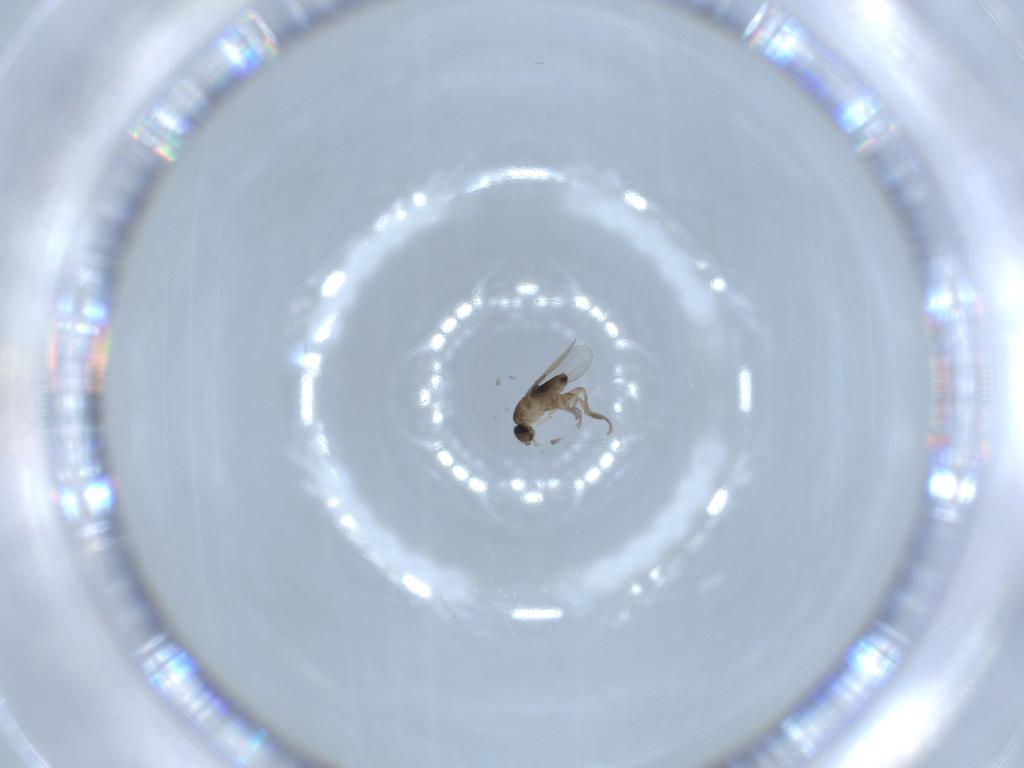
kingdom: Animalia
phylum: Arthropoda
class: Insecta
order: Diptera
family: Phoridae
